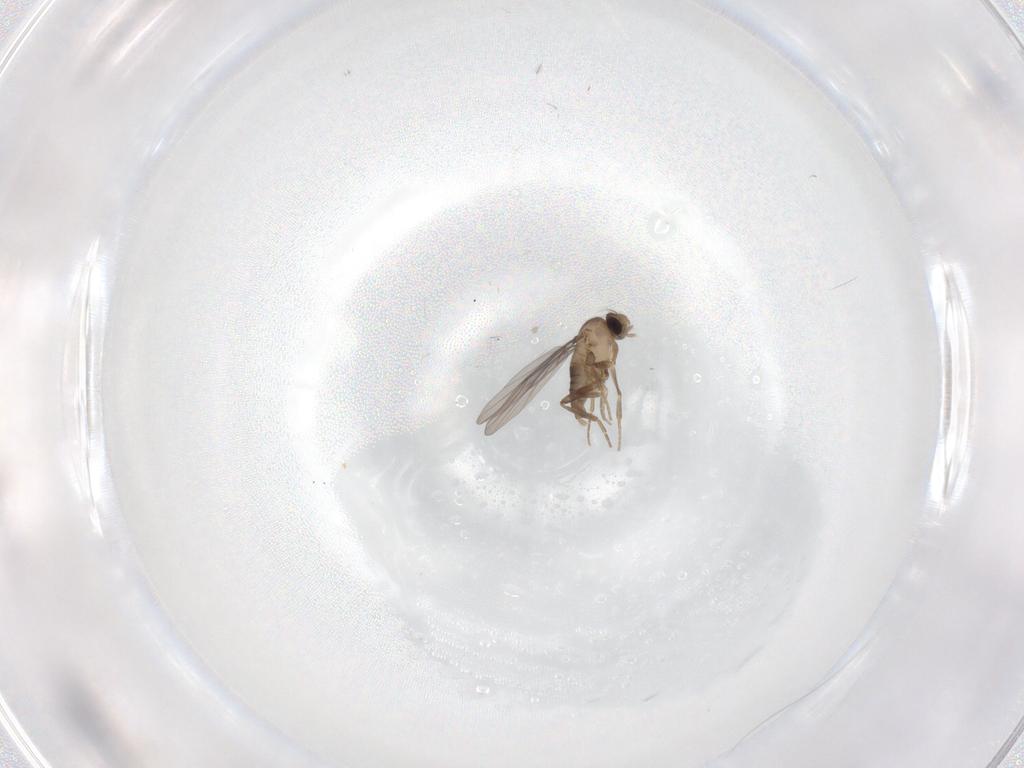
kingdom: Animalia
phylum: Arthropoda
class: Insecta
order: Diptera
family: Cecidomyiidae
